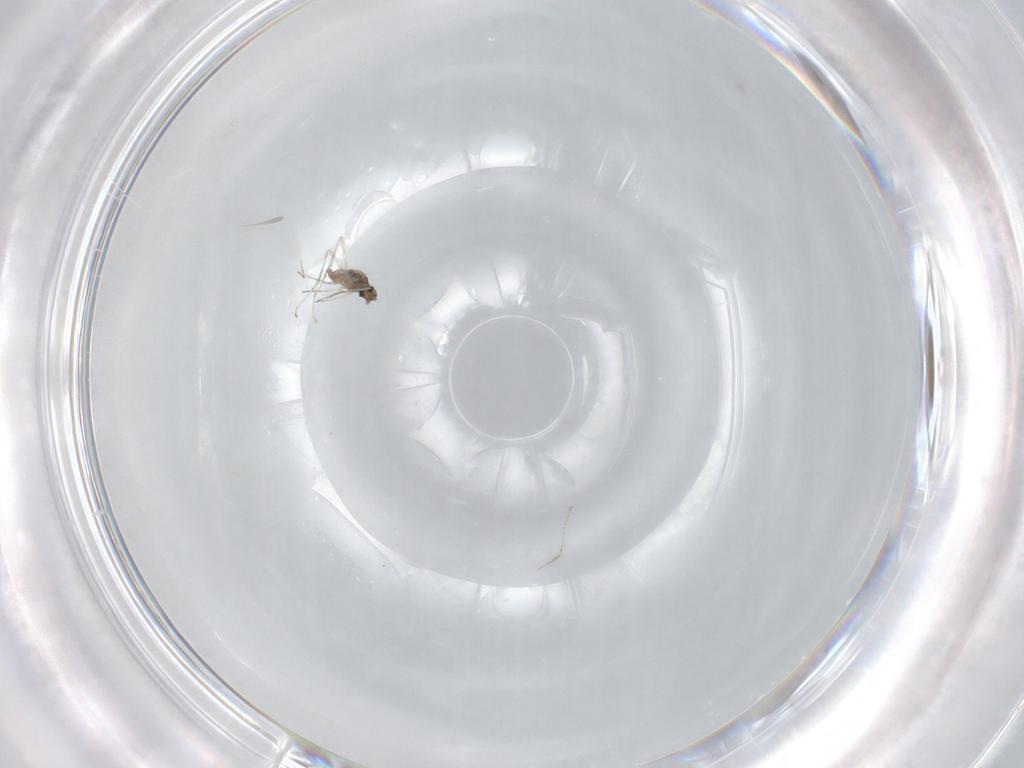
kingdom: Animalia
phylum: Arthropoda
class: Insecta
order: Diptera
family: Cecidomyiidae
